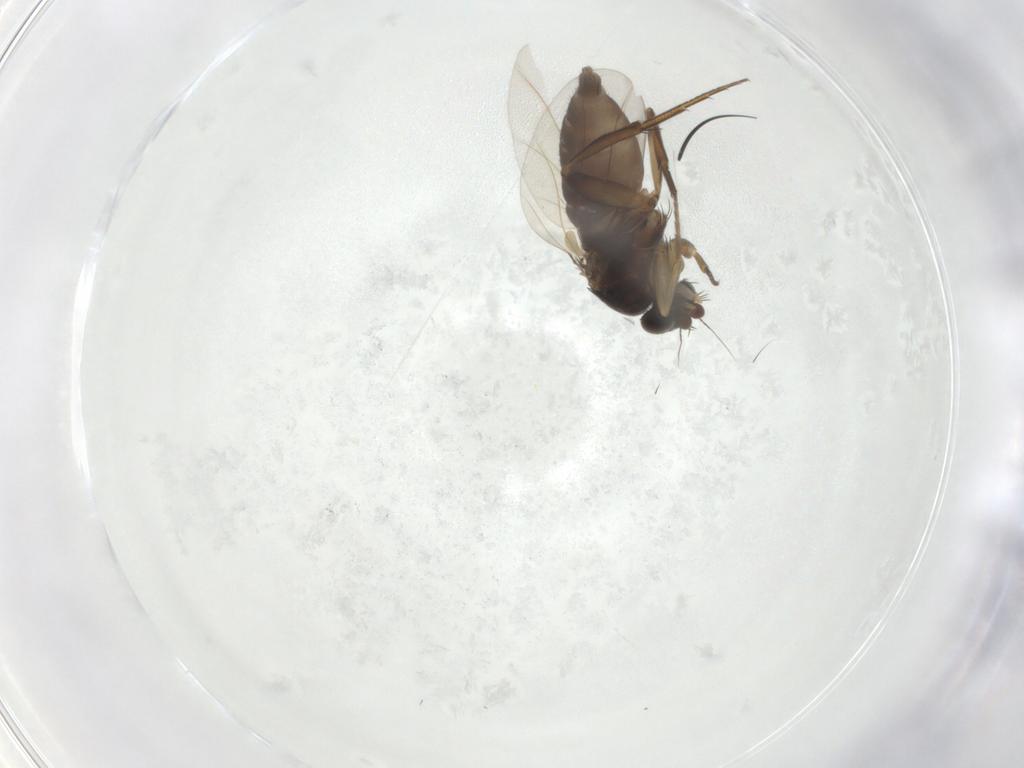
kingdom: Animalia
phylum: Arthropoda
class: Insecta
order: Diptera
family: Phoridae
